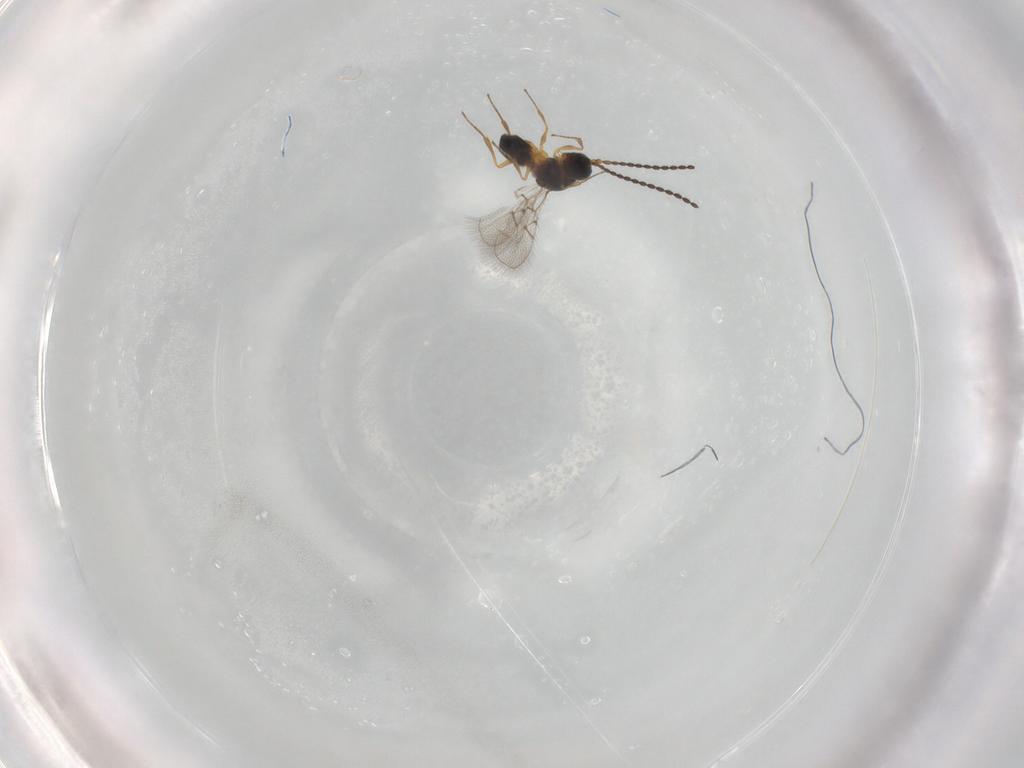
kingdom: Animalia
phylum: Arthropoda
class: Insecta
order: Hymenoptera
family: Figitidae
